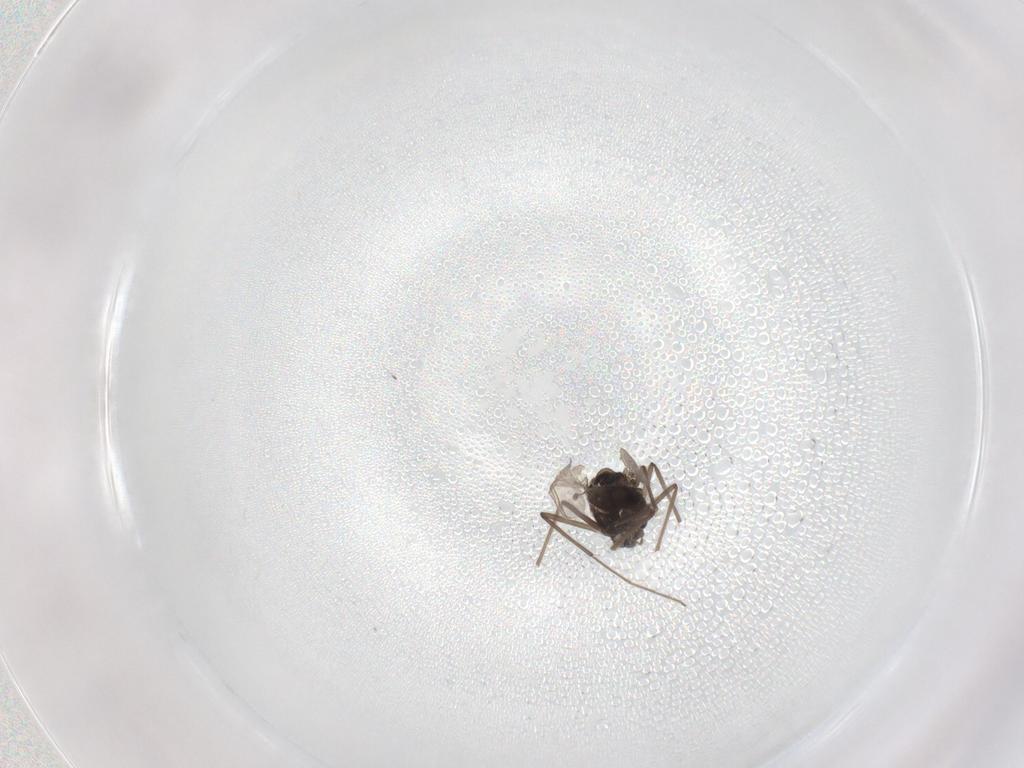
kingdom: Animalia
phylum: Arthropoda
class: Insecta
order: Diptera
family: Chironomidae
